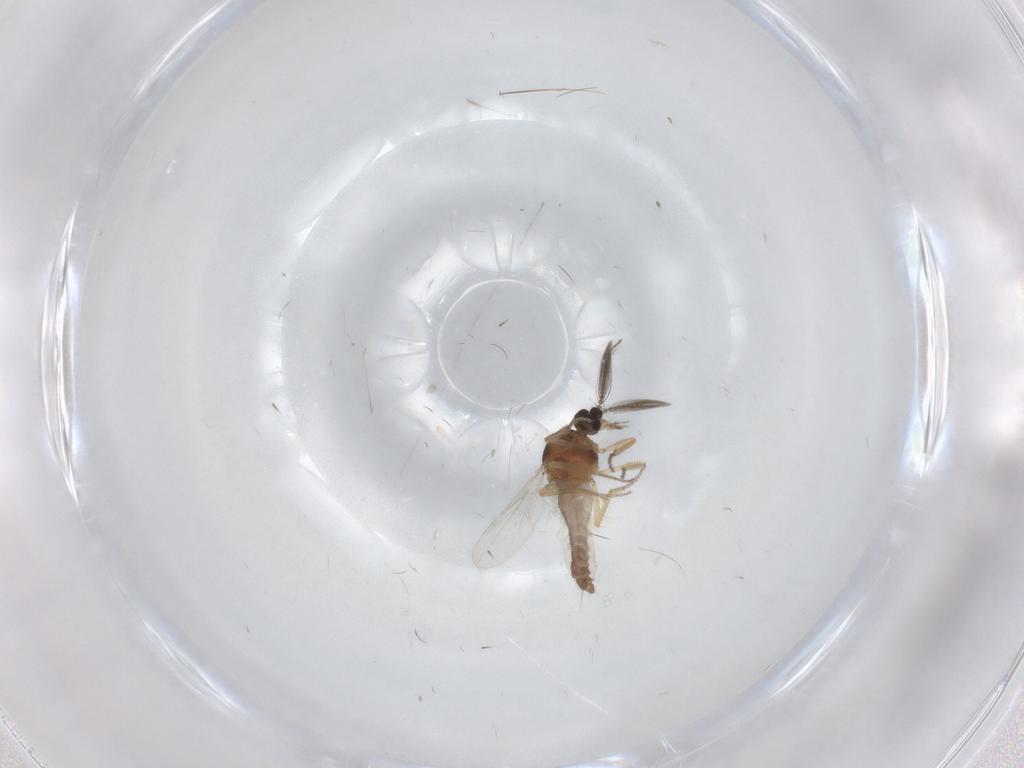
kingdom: Animalia
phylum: Arthropoda
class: Insecta
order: Diptera
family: Ceratopogonidae
